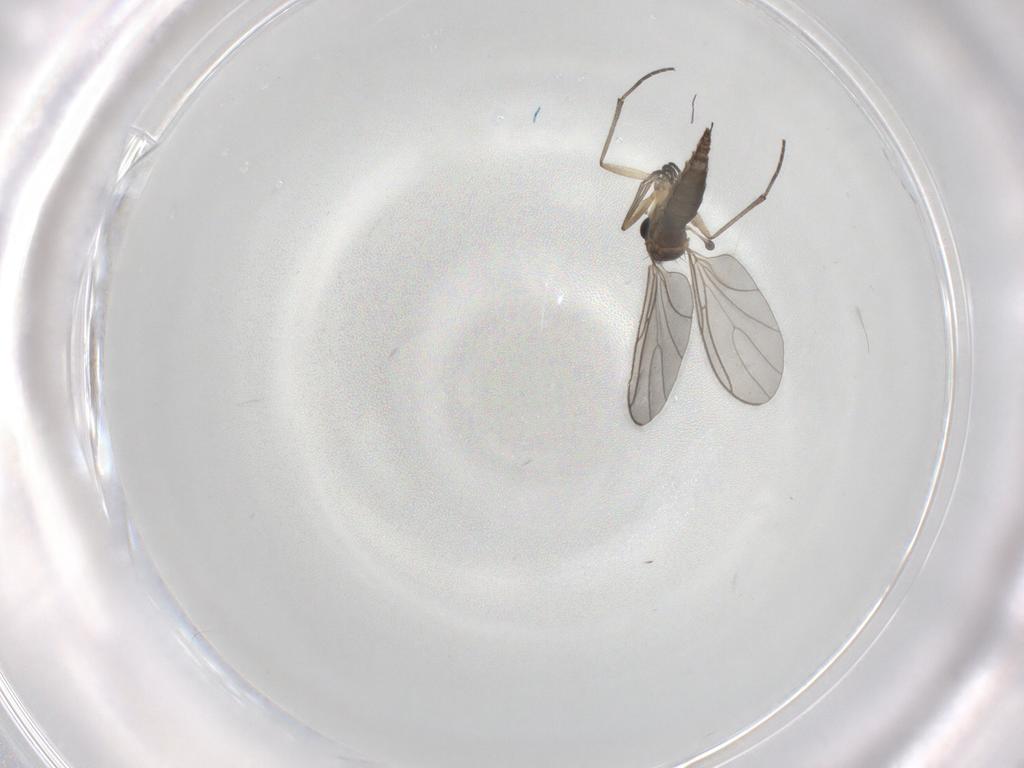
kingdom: Animalia
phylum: Arthropoda
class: Insecta
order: Diptera
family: Sciaridae
